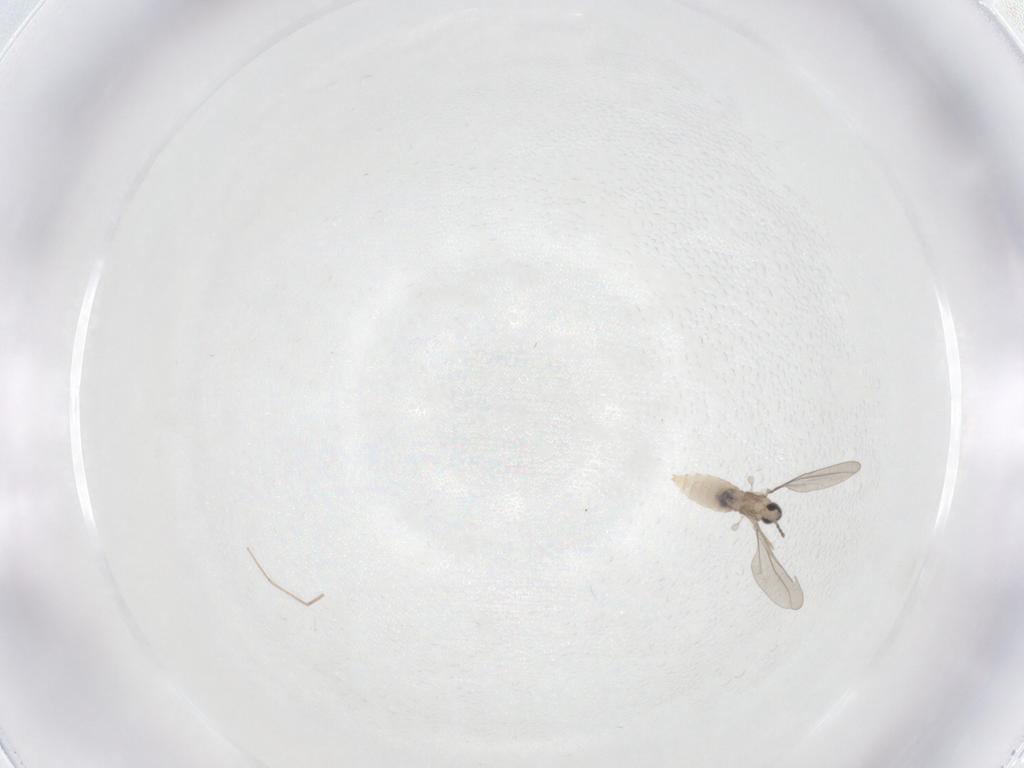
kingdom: Animalia
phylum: Arthropoda
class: Insecta
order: Diptera
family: Cecidomyiidae
